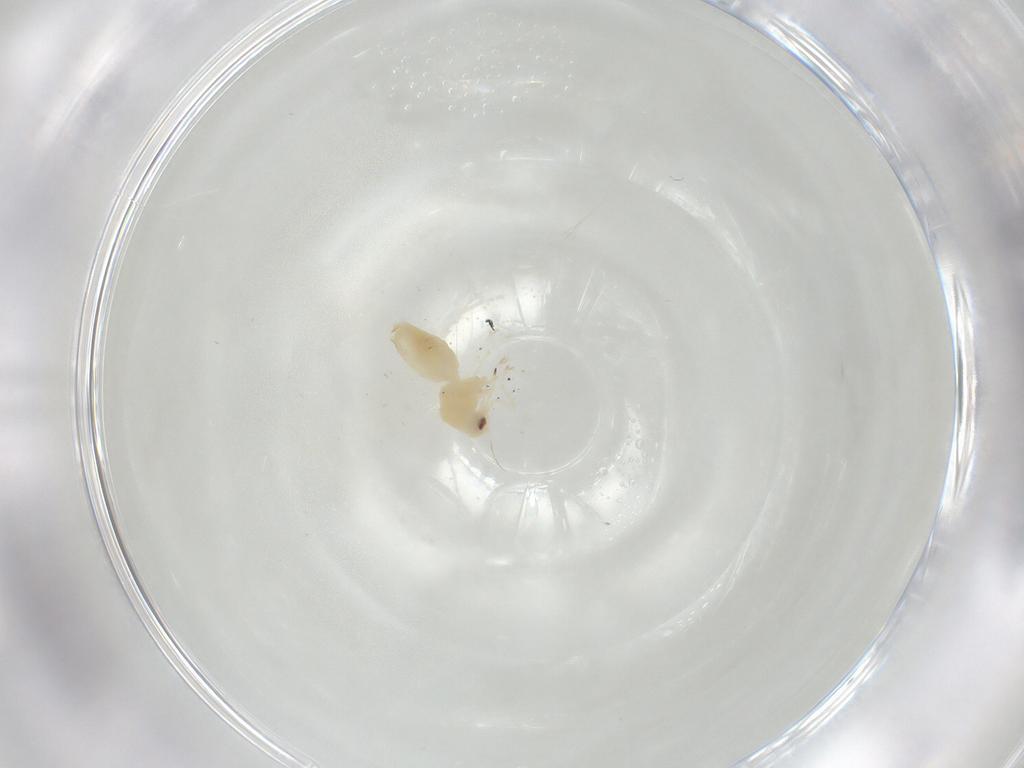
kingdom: Animalia
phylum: Arthropoda
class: Insecta
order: Hemiptera
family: Aleyrodidae
